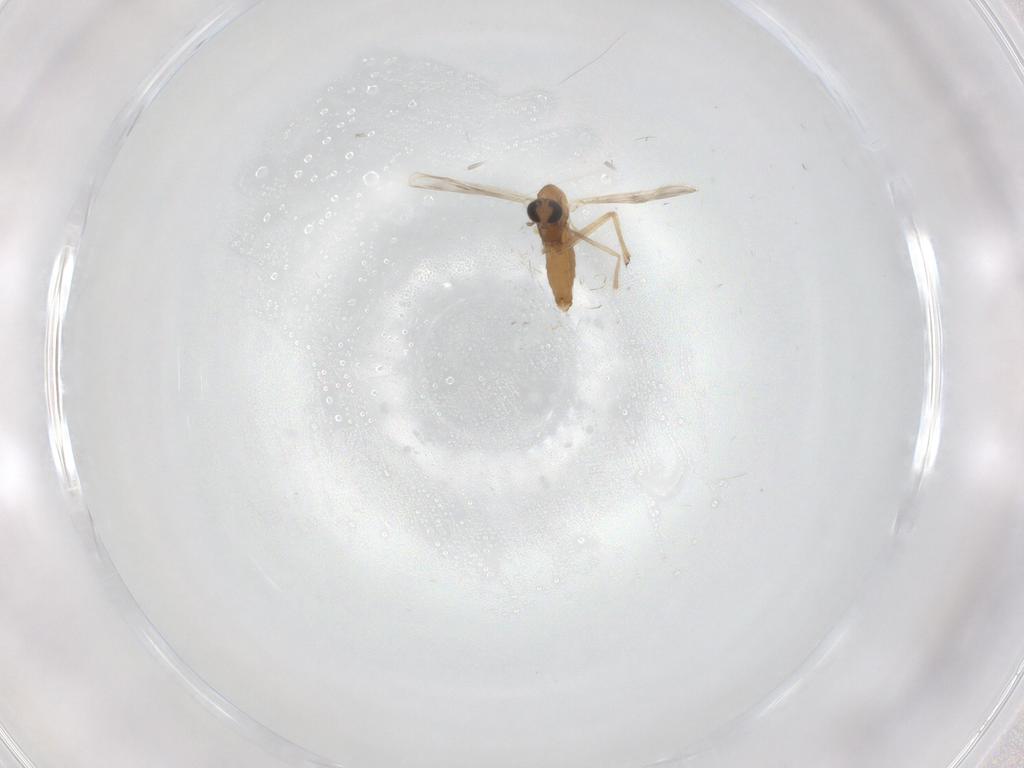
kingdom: Animalia
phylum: Arthropoda
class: Insecta
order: Diptera
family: Chironomidae
